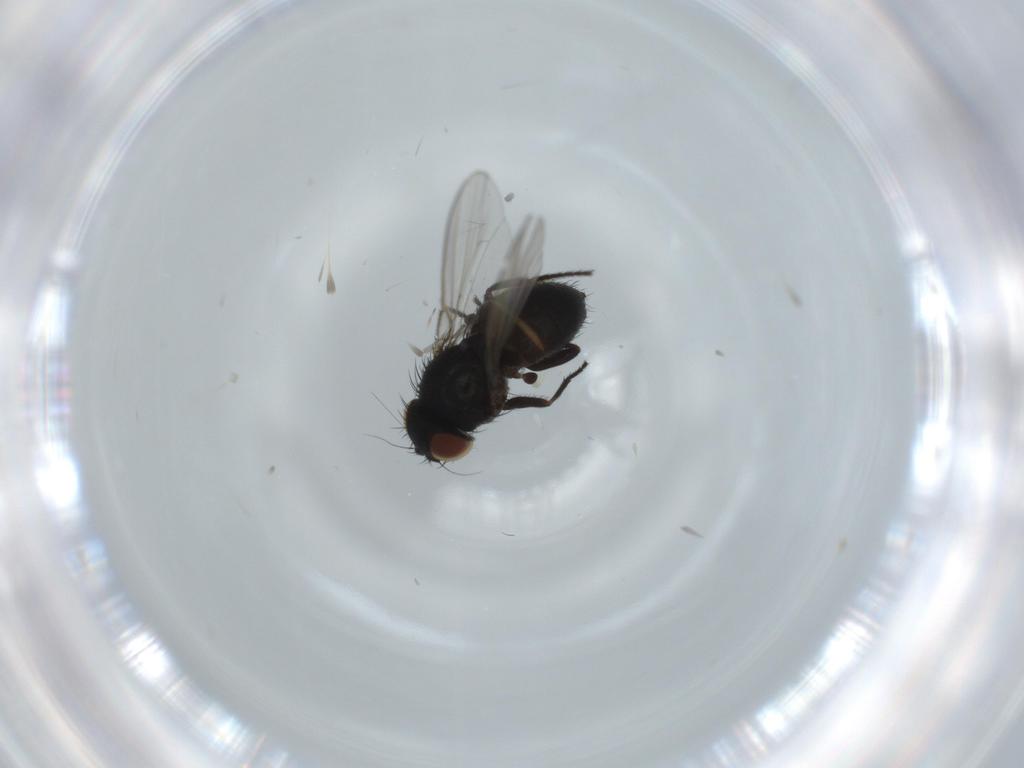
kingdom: Animalia
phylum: Arthropoda
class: Insecta
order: Diptera
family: Milichiidae
